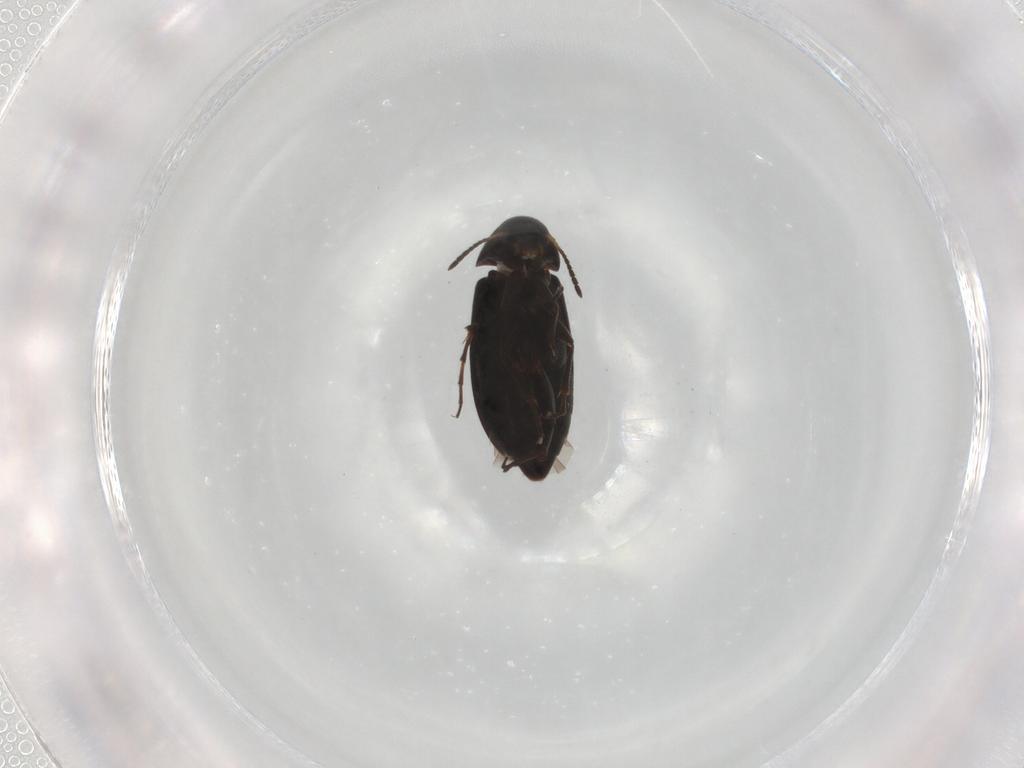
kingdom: Animalia
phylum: Arthropoda
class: Insecta
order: Coleoptera
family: Scraptiidae
